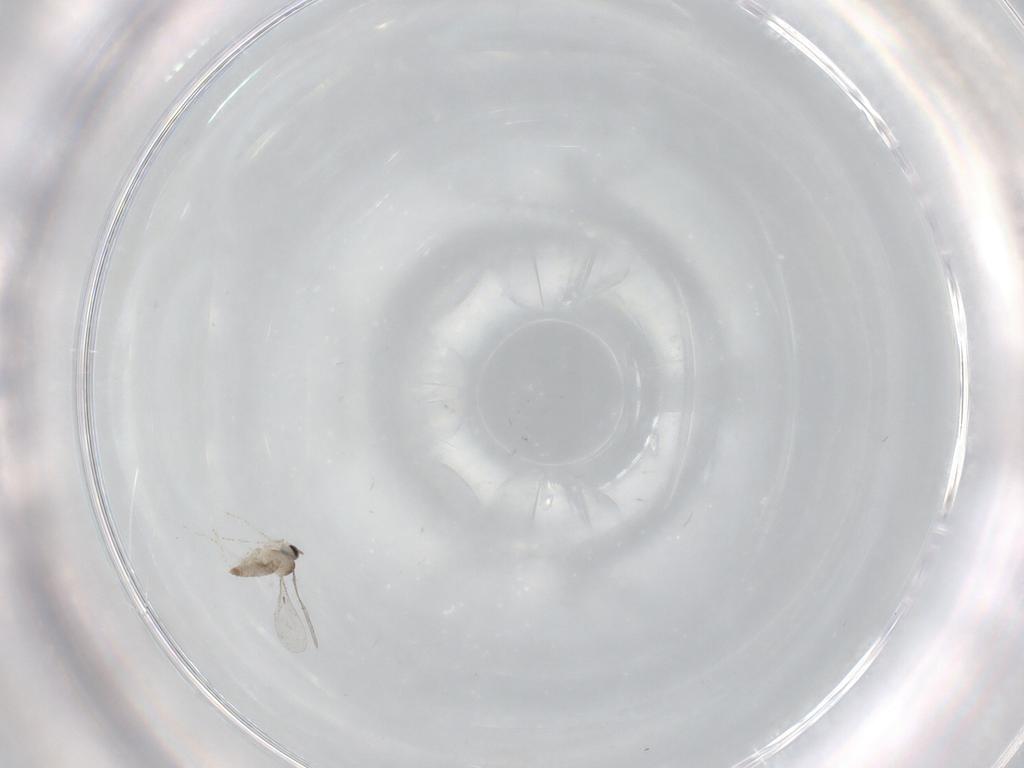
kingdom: Animalia
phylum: Arthropoda
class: Insecta
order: Diptera
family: Ceratopogonidae
